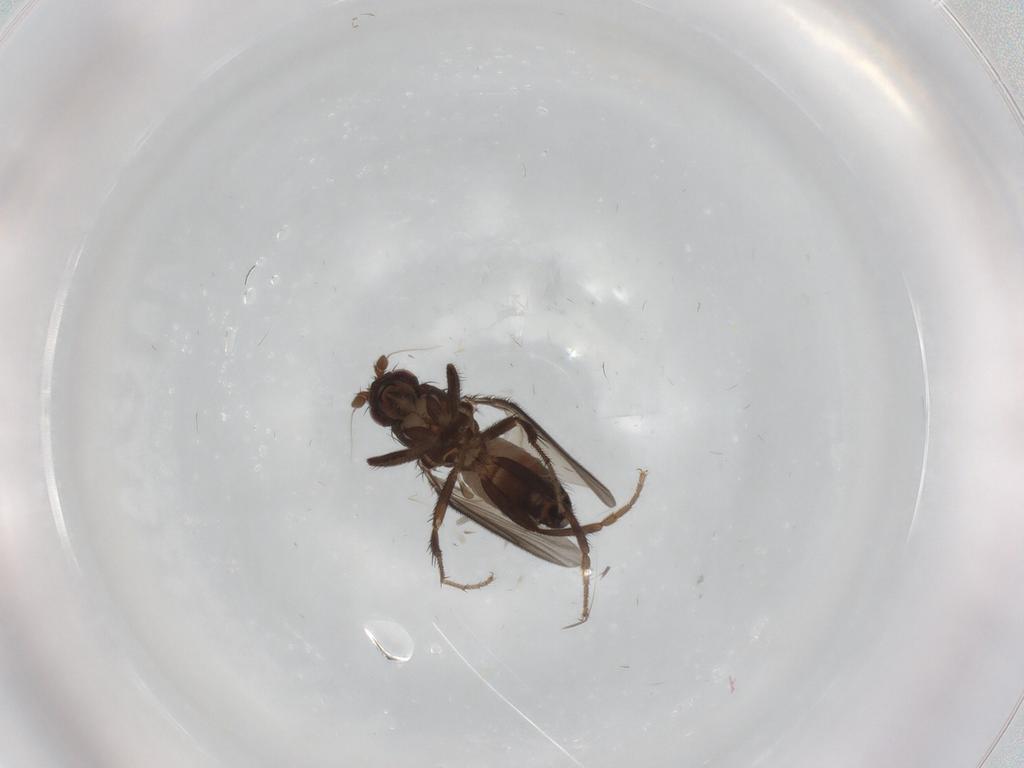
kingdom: Animalia
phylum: Arthropoda
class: Insecta
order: Diptera
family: Sphaeroceridae
